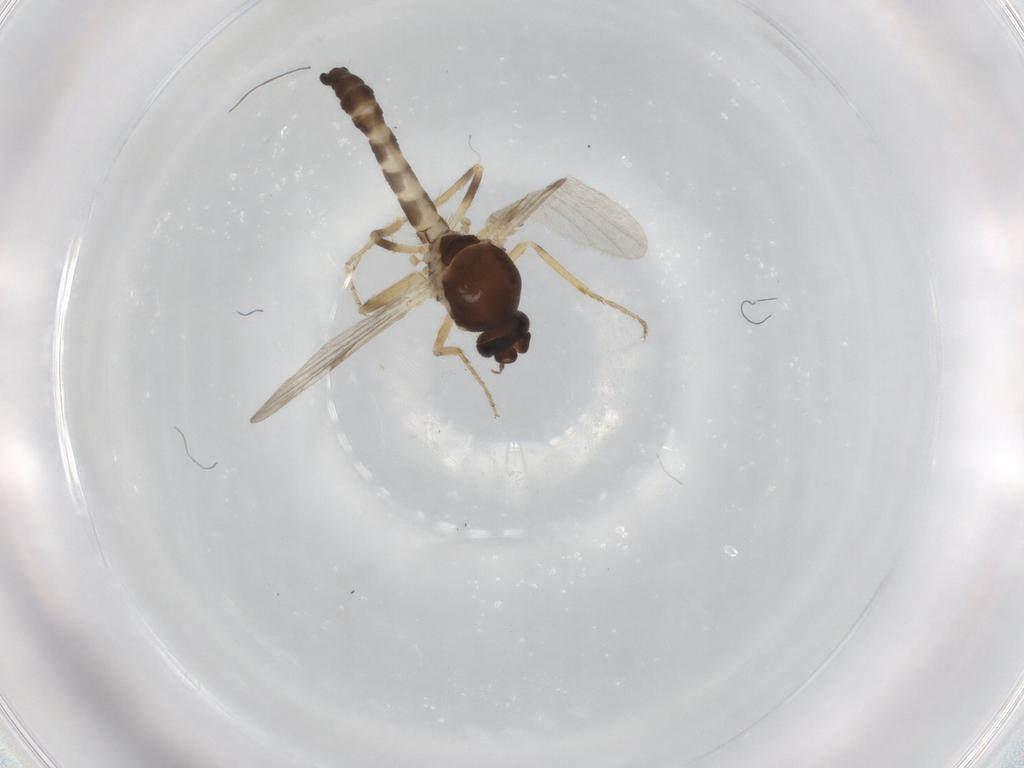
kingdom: Animalia
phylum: Arthropoda
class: Insecta
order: Diptera
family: Ceratopogonidae
